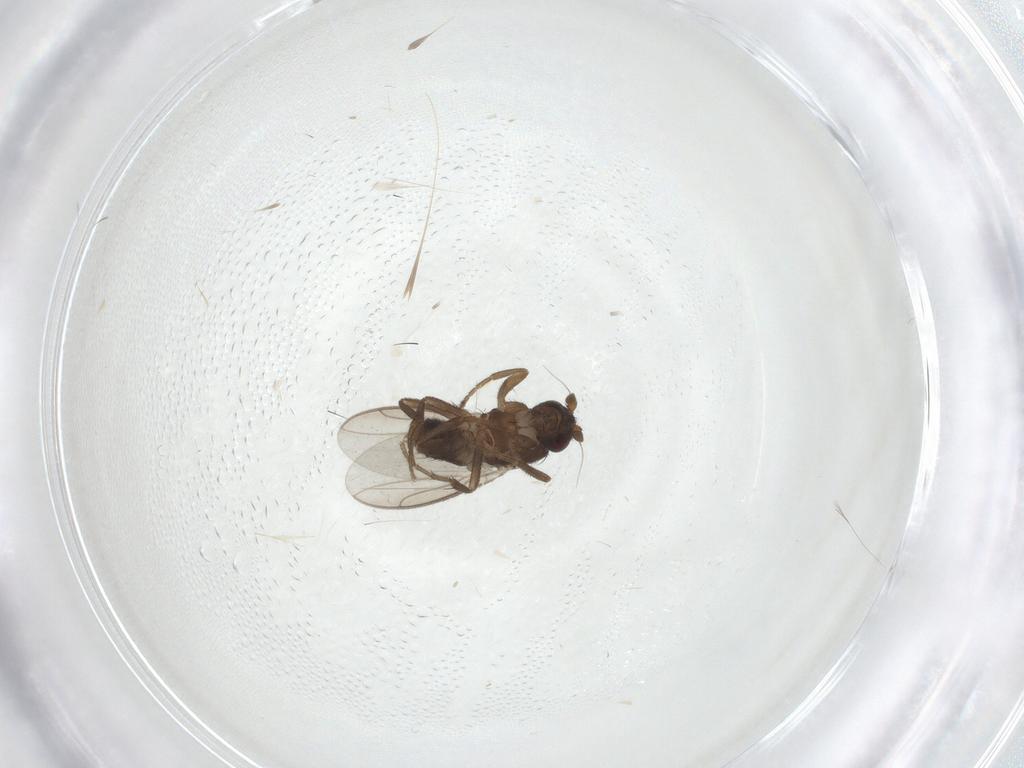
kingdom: Animalia
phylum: Arthropoda
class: Insecta
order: Diptera
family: Sphaeroceridae
